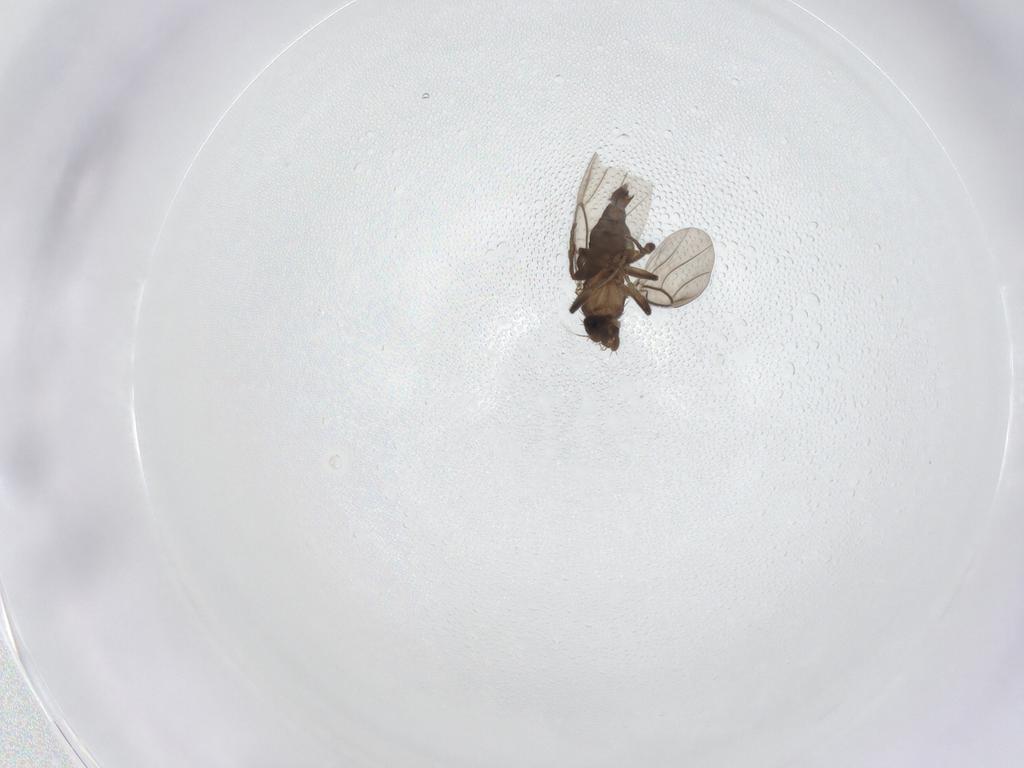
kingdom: Animalia
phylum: Arthropoda
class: Insecta
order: Diptera
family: Phoridae
